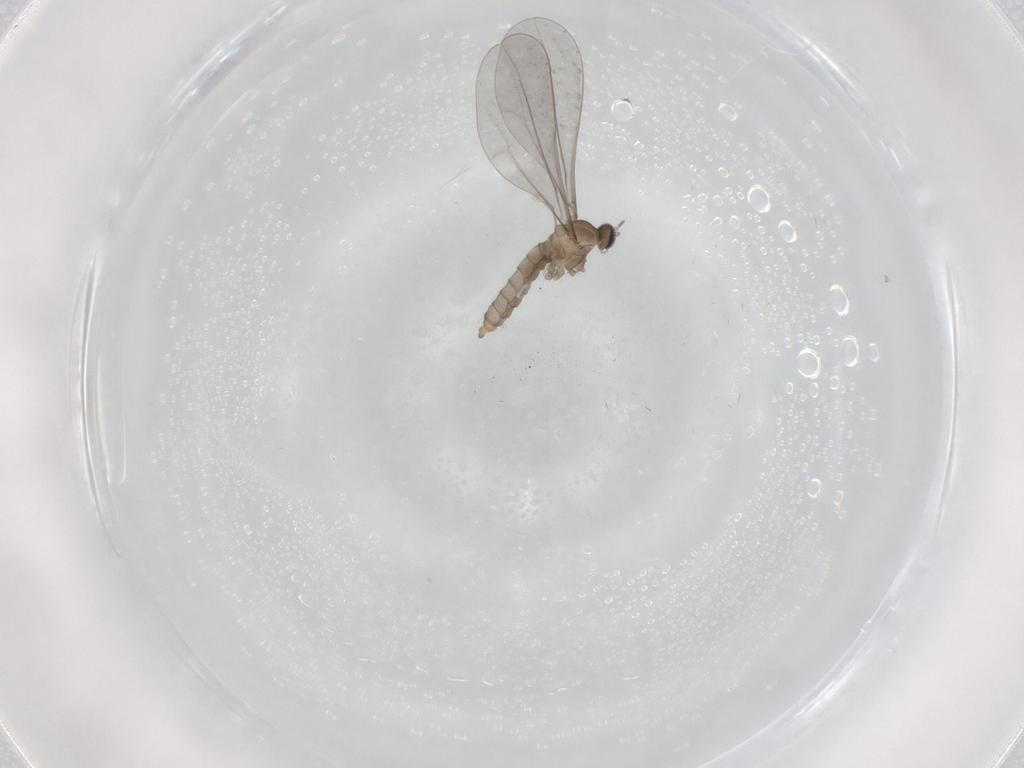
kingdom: Animalia
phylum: Arthropoda
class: Insecta
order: Diptera
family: Cecidomyiidae
